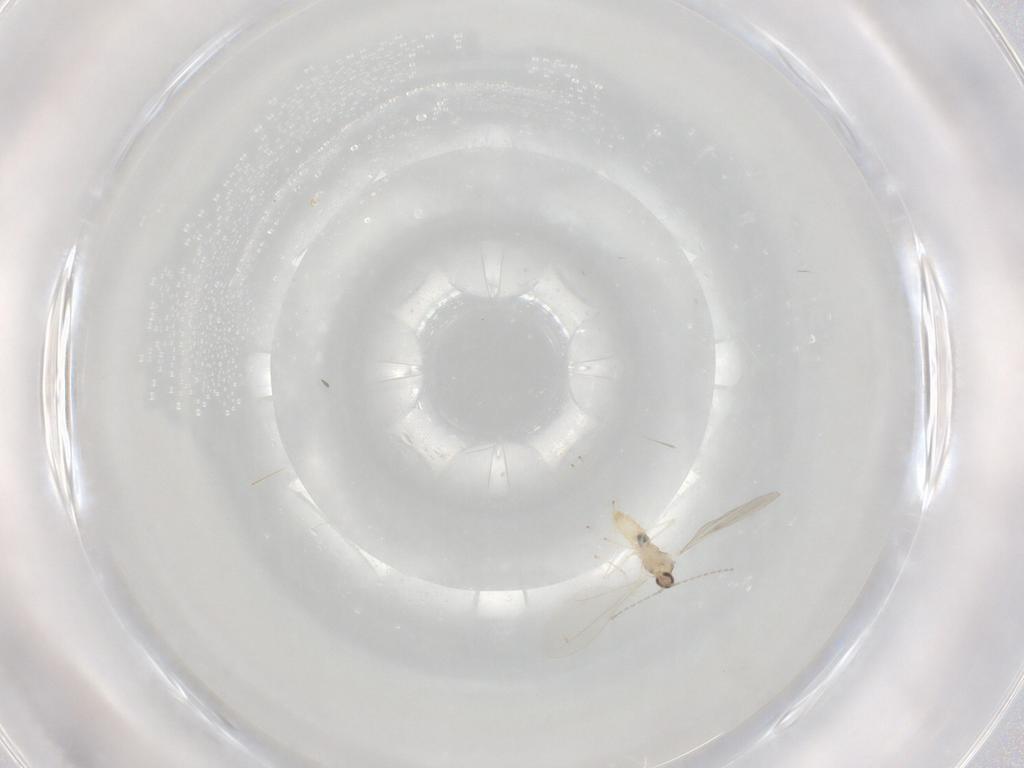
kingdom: Animalia
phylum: Arthropoda
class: Insecta
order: Diptera
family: Cecidomyiidae
